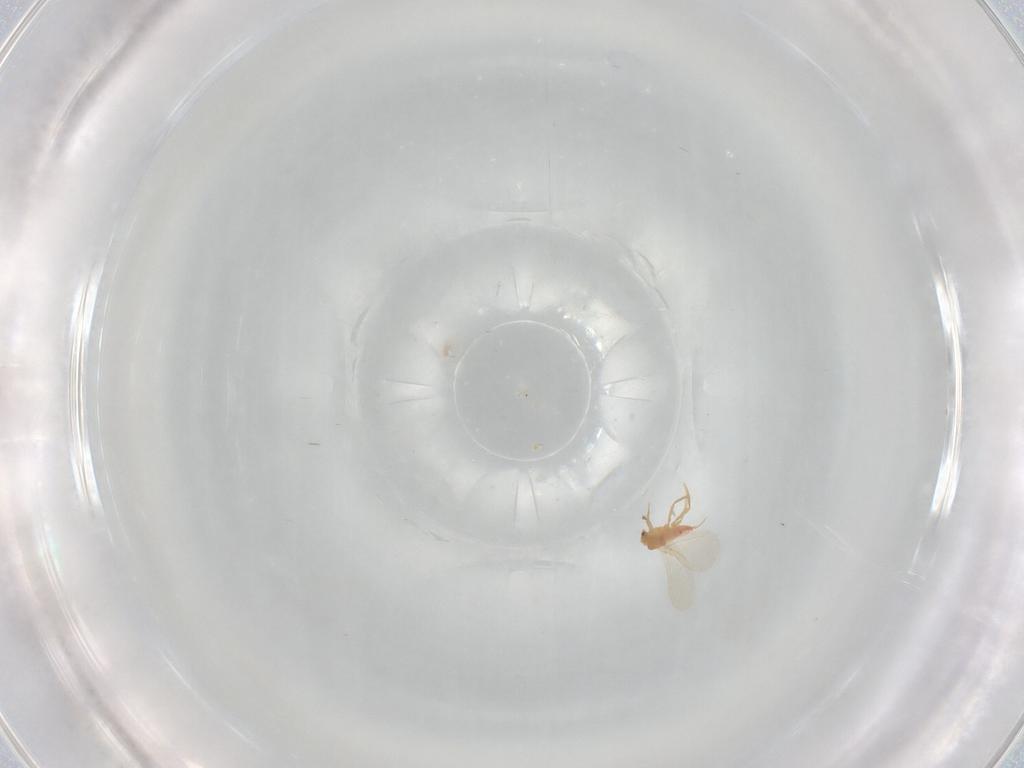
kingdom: Animalia
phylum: Arthropoda
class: Insecta
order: Hemiptera
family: Coccoidea_incertae_sedis
